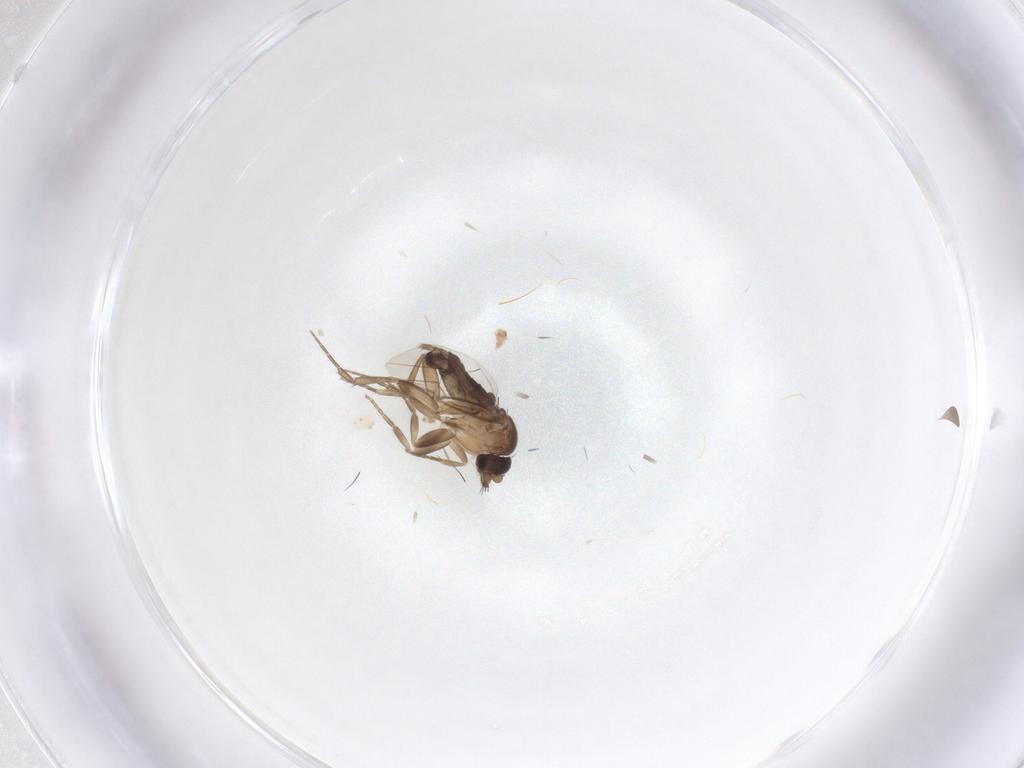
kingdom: Animalia
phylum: Arthropoda
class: Insecta
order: Diptera
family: Phoridae
